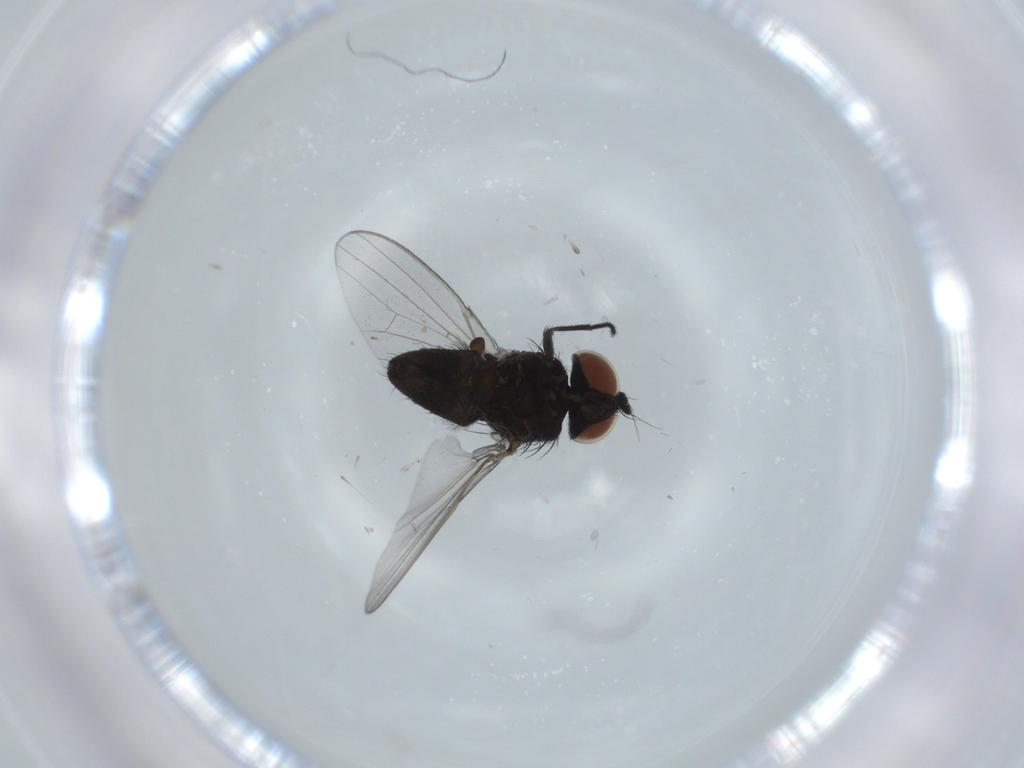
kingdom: Animalia
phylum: Arthropoda
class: Insecta
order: Diptera
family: Milichiidae
